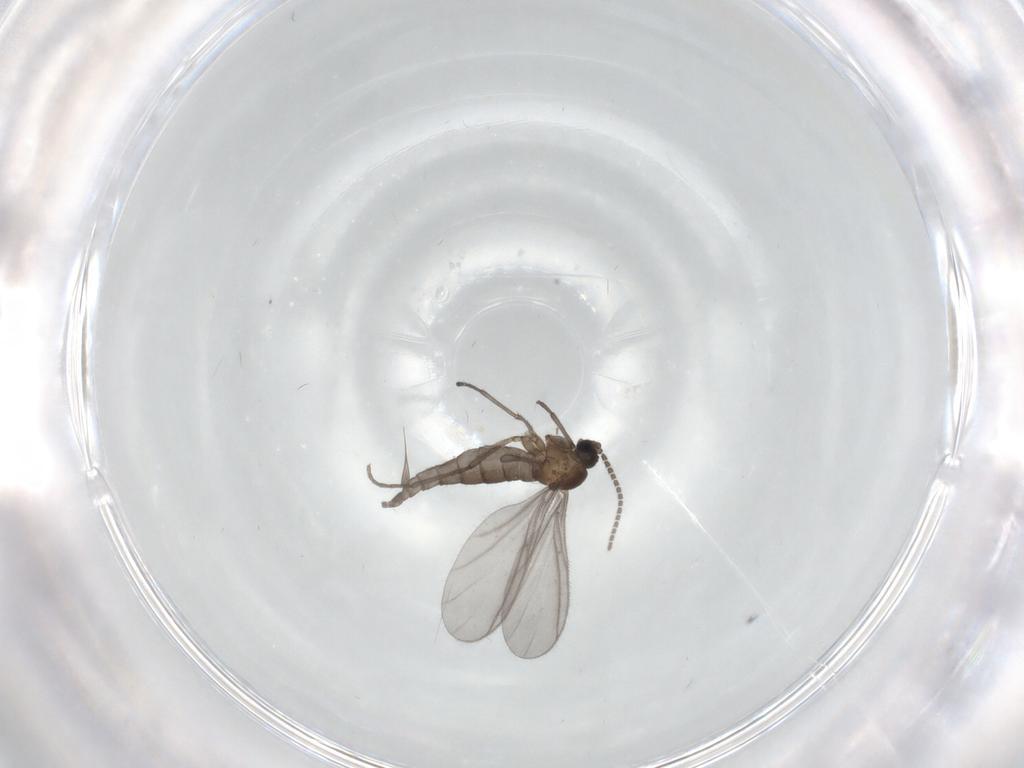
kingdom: Animalia
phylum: Arthropoda
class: Insecta
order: Diptera
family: Sciaridae
